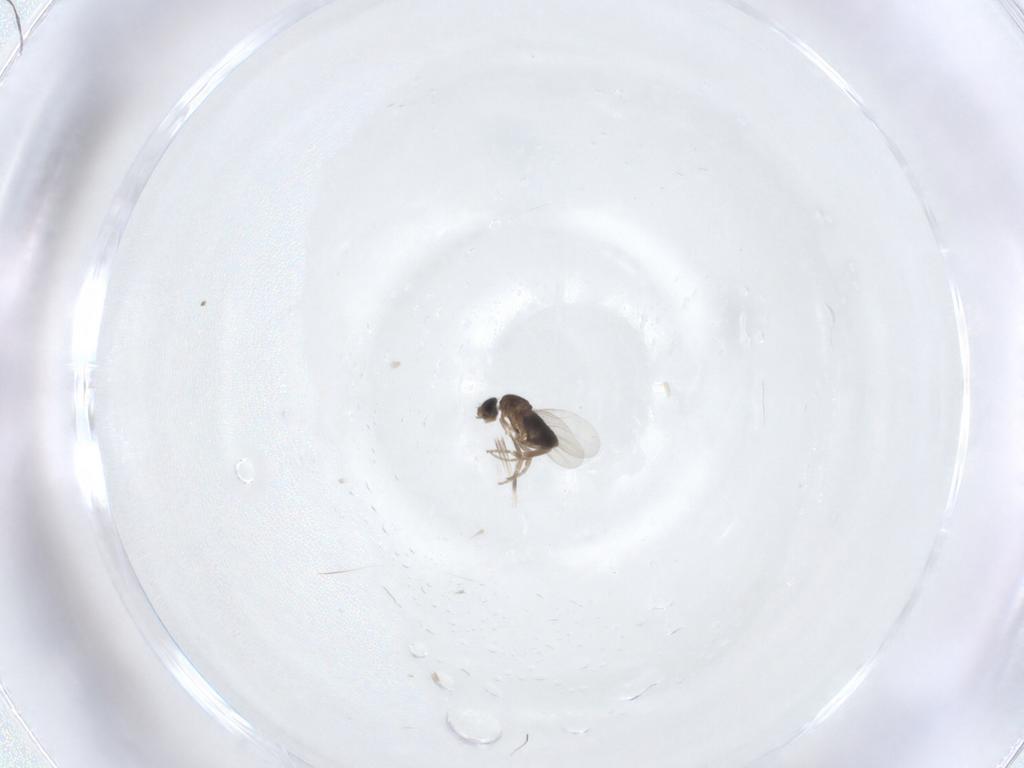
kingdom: Animalia
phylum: Arthropoda
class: Insecta
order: Diptera
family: Phoridae
